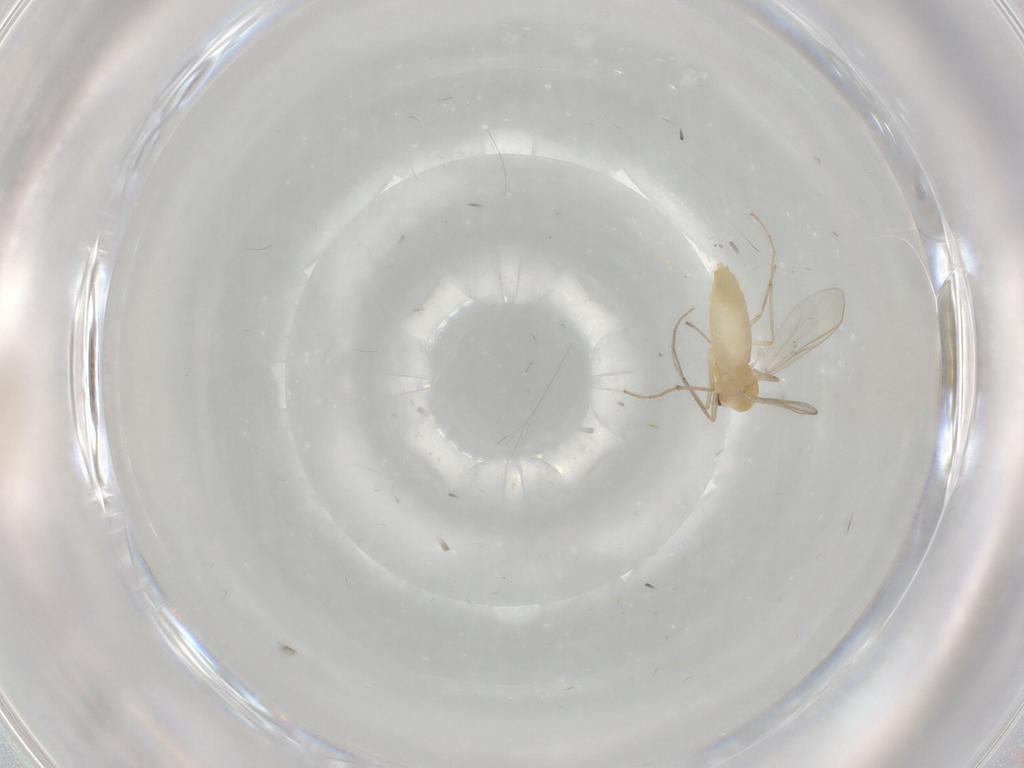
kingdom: Animalia
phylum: Arthropoda
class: Insecta
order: Diptera
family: Chironomidae
